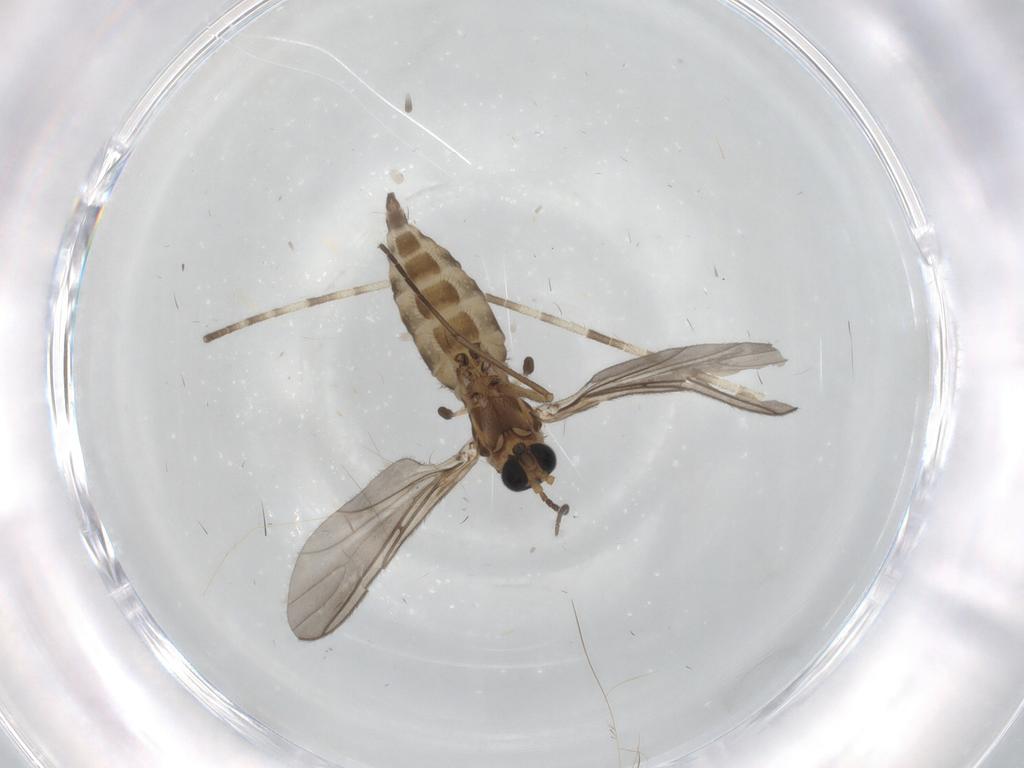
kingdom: Animalia
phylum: Arthropoda
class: Insecta
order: Diptera
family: Sciaridae
